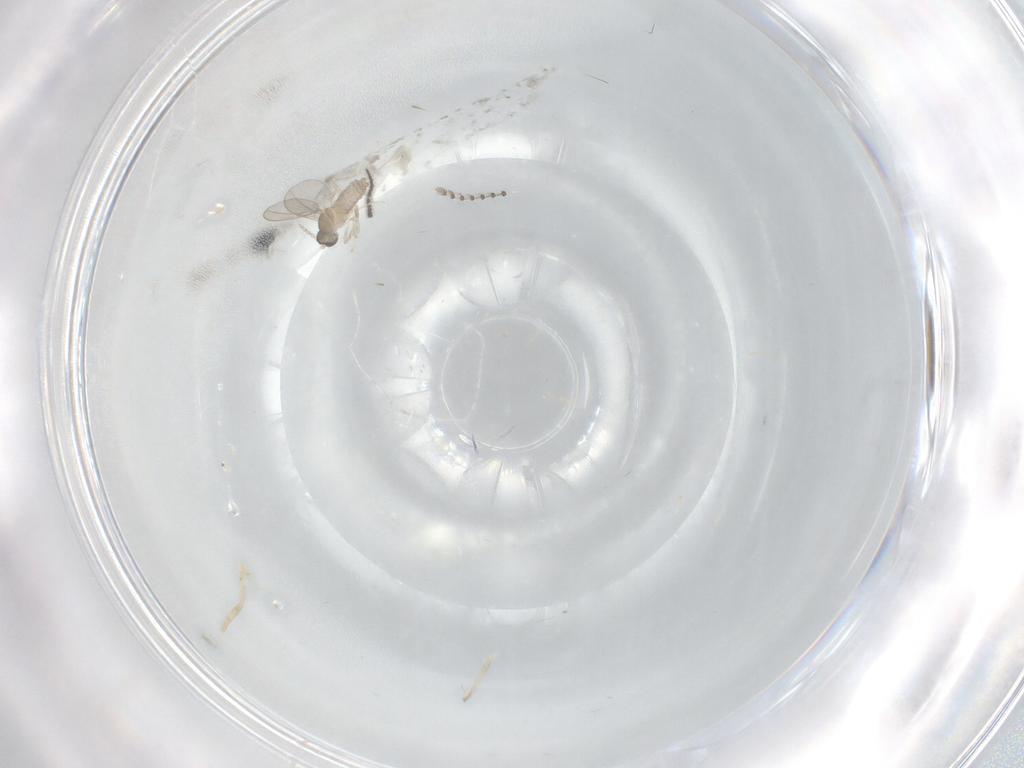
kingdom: Animalia
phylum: Arthropoda
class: Insecta
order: Diptera
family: Cecidomyiidae
